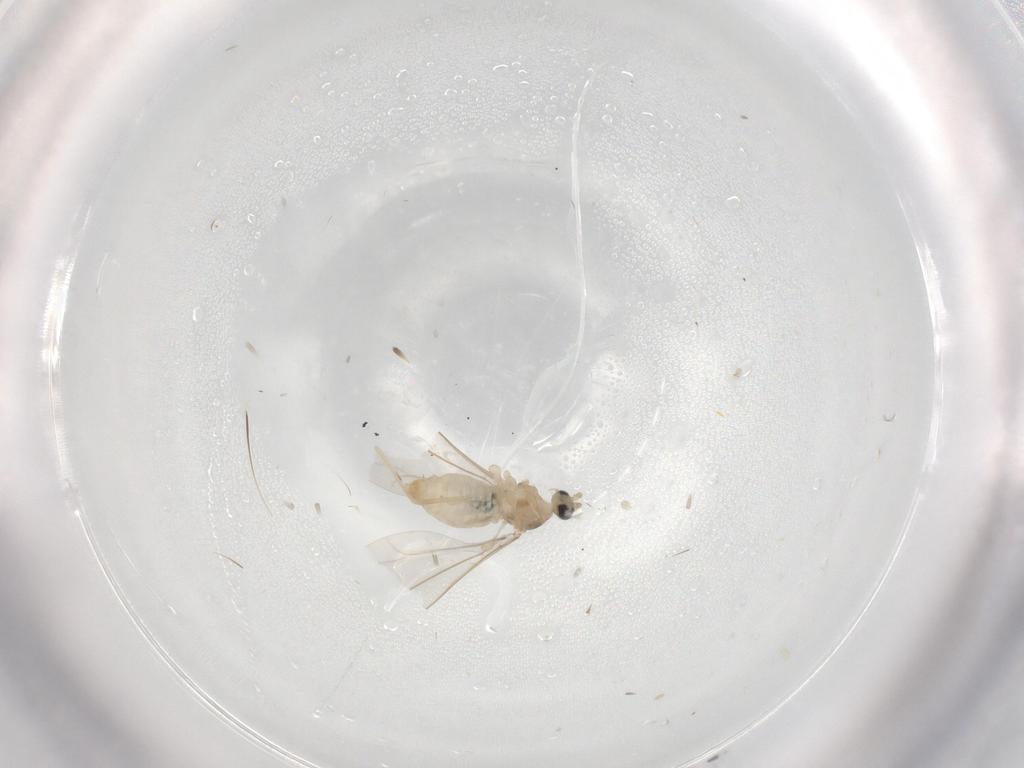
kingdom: Animalia
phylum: Arthropoda
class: Insecta
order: Diptera
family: Cecidomyiidae
